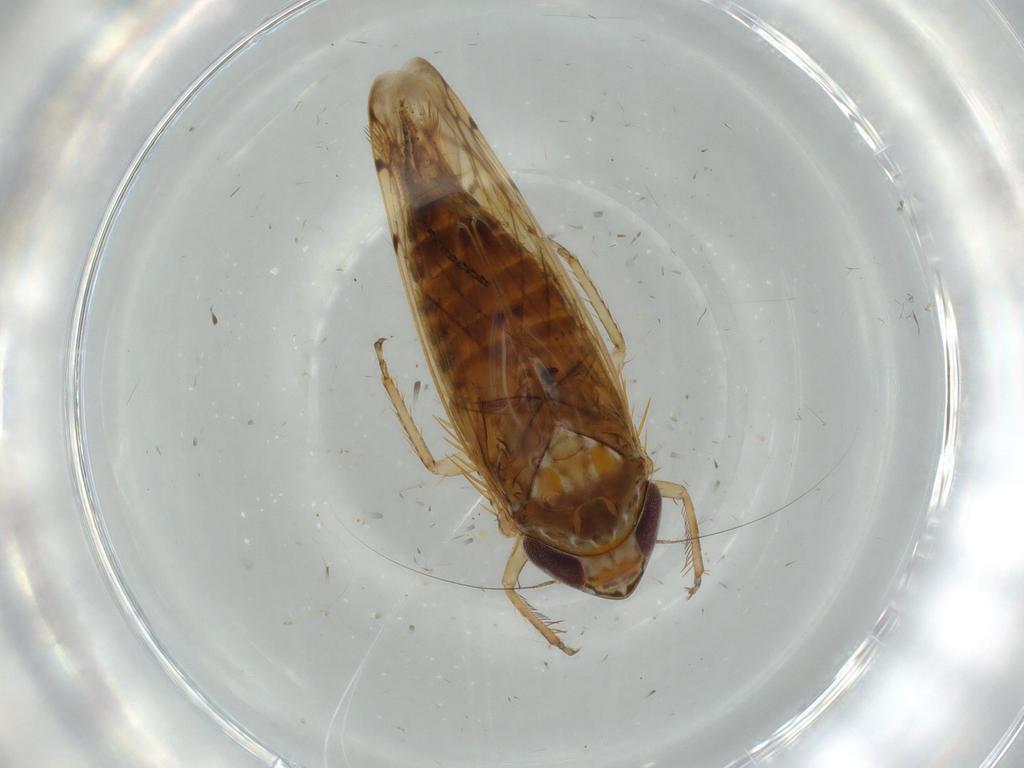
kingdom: Animalia
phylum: Arthropoda
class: Insecta
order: Hemiptera
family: Cicadellidae
